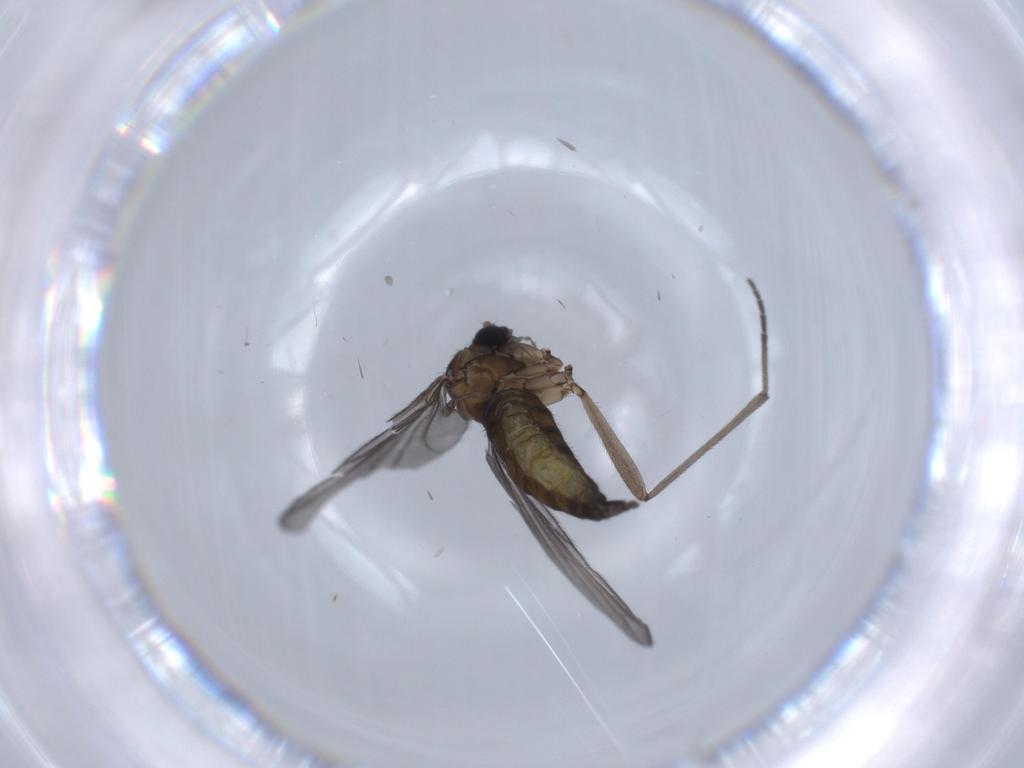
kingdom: Animalia
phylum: Arthropoda
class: Insecta
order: Diptera
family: Sciaridae
